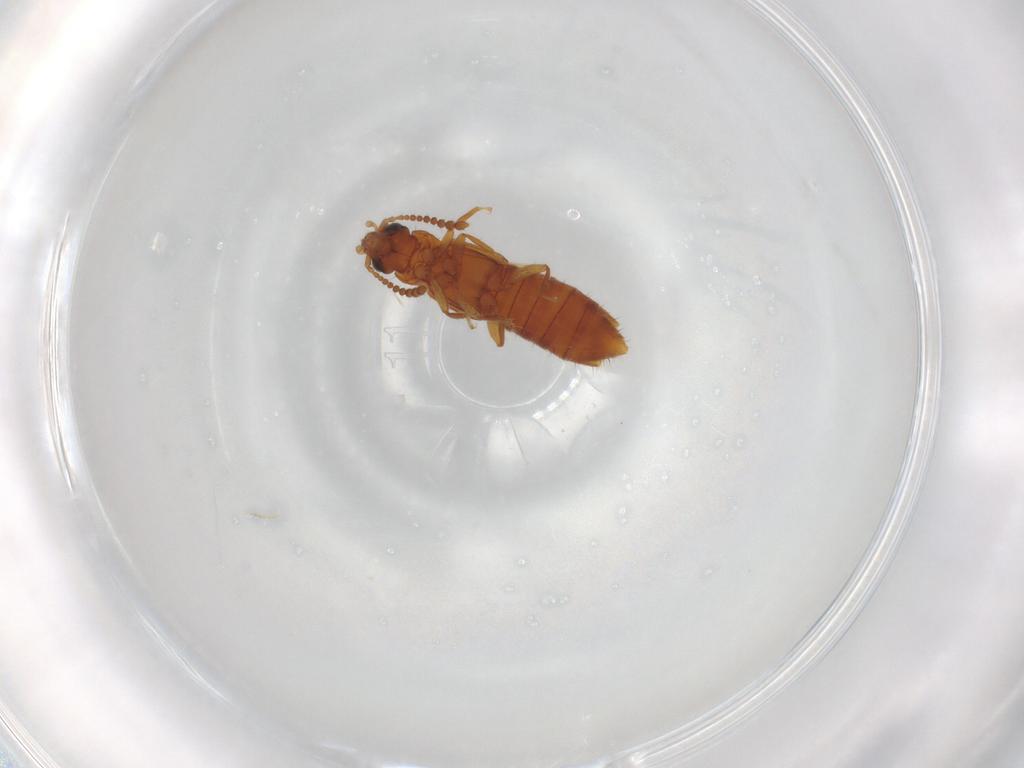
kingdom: Animalia
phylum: Arthropoda
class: Insecta
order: Coleoptera
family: Staphylinidae
